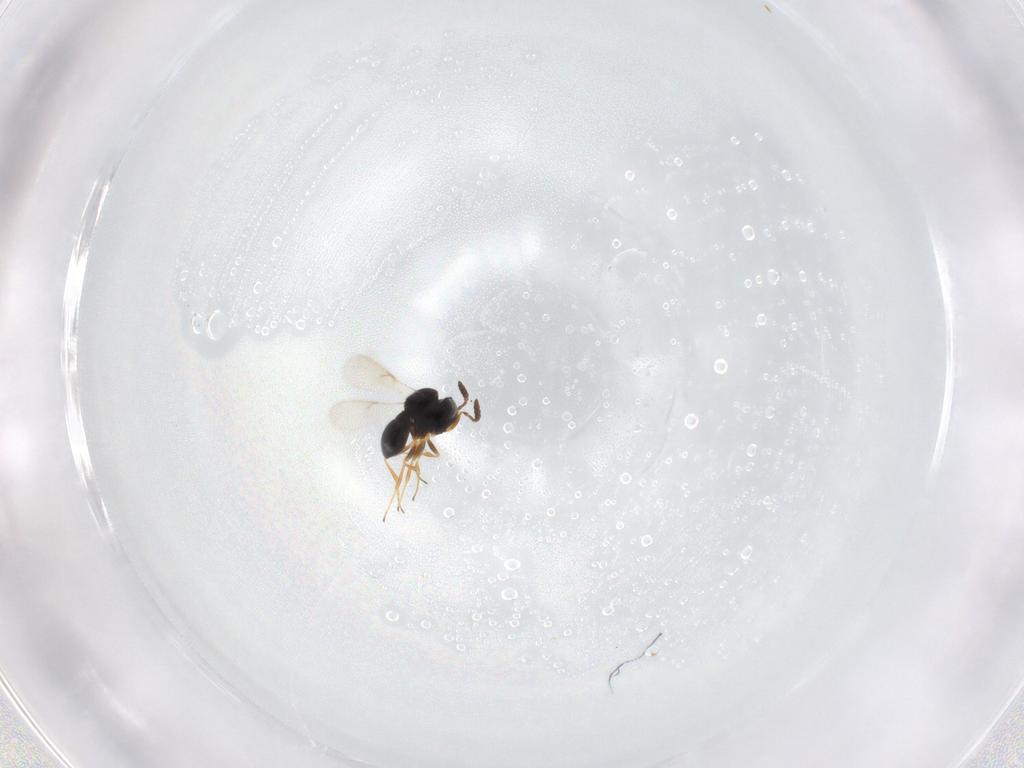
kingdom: Animalia
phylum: Arthropoda
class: Insecta
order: Hymenoptera
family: Scelionidae
